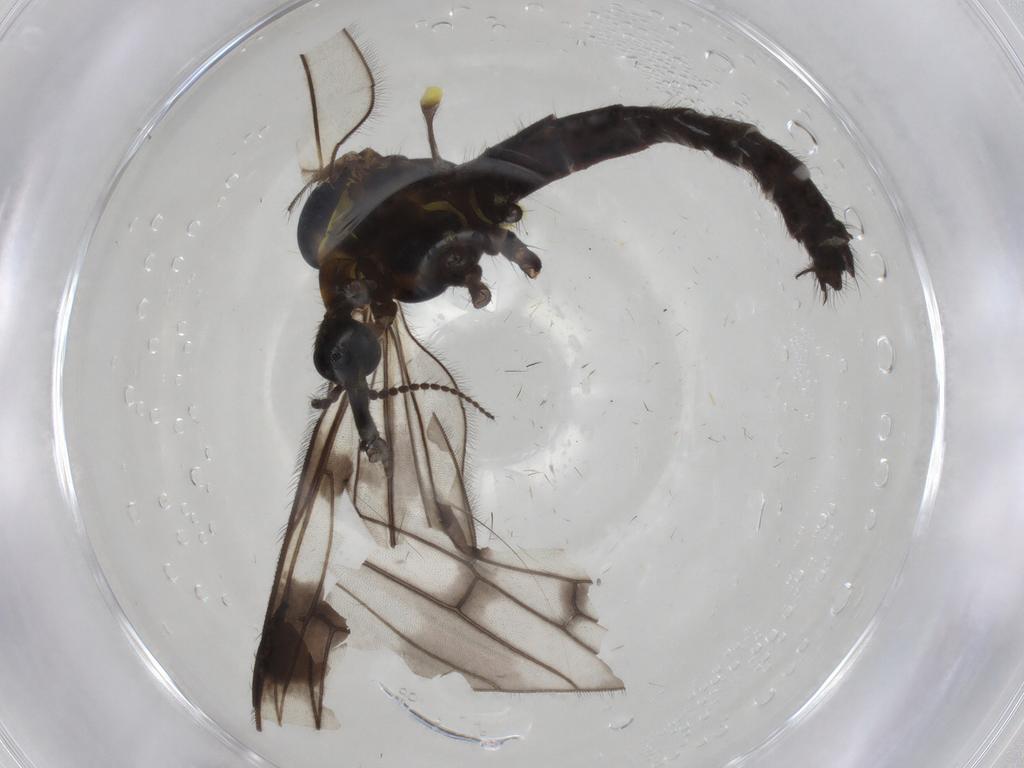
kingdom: Animalia
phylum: Arthropoda
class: Insecta
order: Diptera
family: Limoniidae
